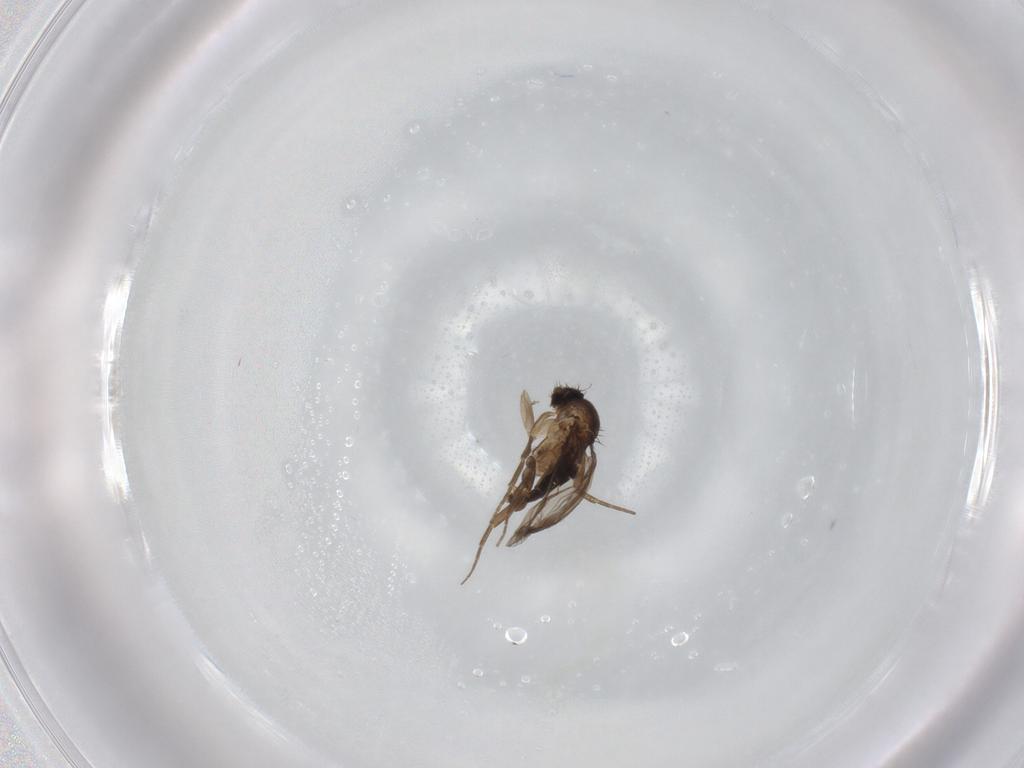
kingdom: Animalia
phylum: Arthropoda
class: Insecta
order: Diptera
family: Phoridae
